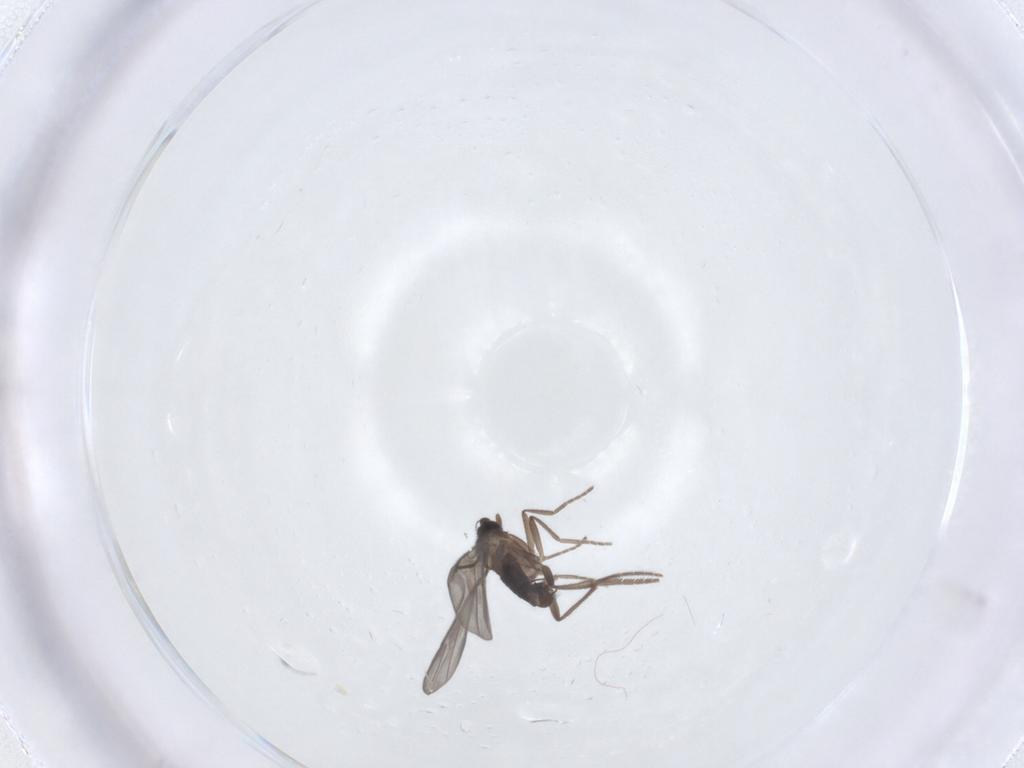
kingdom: Animalia
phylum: Arthropoda
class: Insecta
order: Diptera
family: Phoridae
